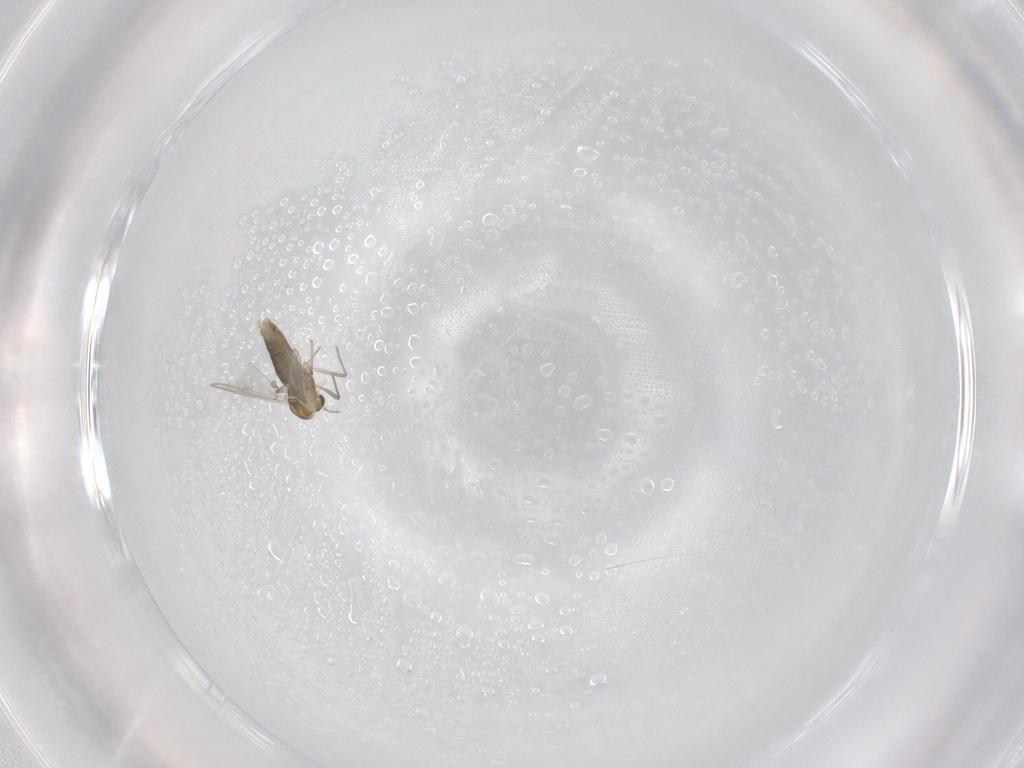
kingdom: Animalia
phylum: Arthropoda
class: Insecta
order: Diptera
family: Chironomidae
